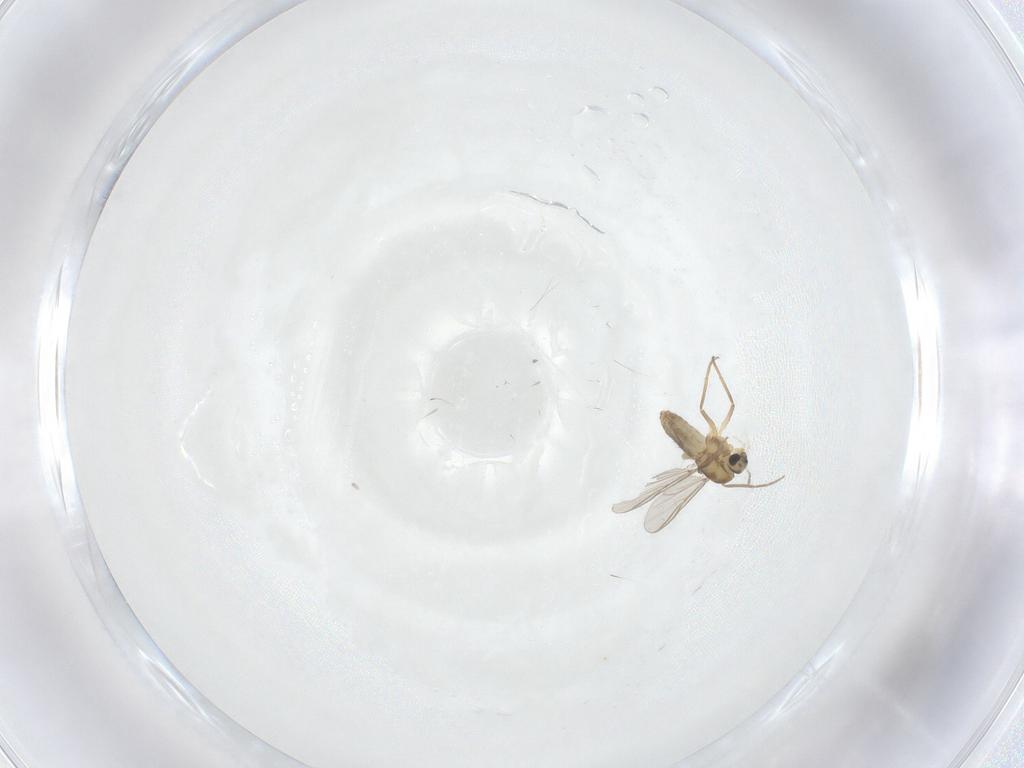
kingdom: Animalia
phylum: Arthropoda
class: Insecta
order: Diptera
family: Chironomidae
